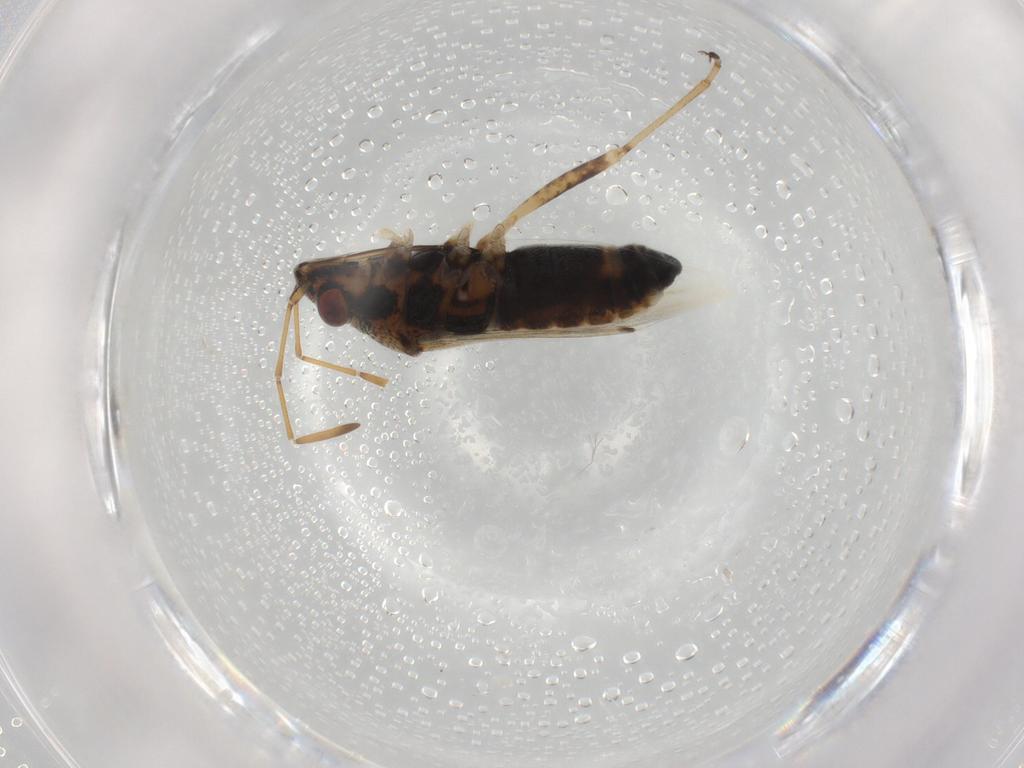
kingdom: Animalia
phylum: Arthropoda
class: Insecta
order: Hemiptera
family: Lygaeidae
